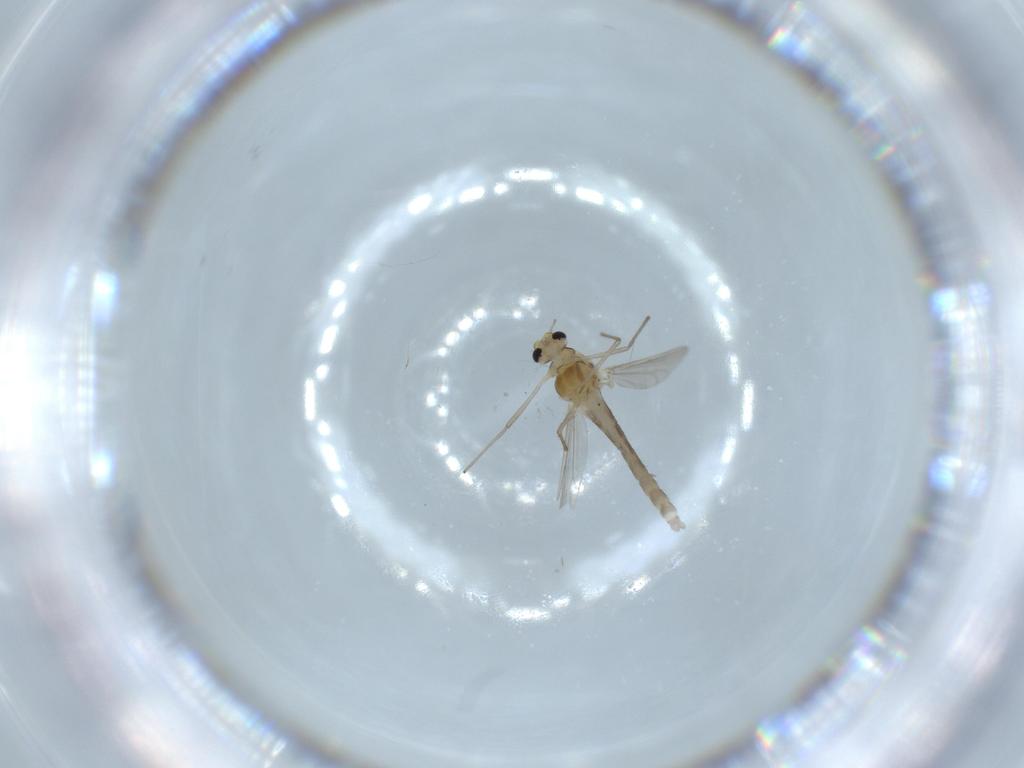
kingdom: Animalia
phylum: Arthropoda
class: Insecta
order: Diptera
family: Chironomidae
